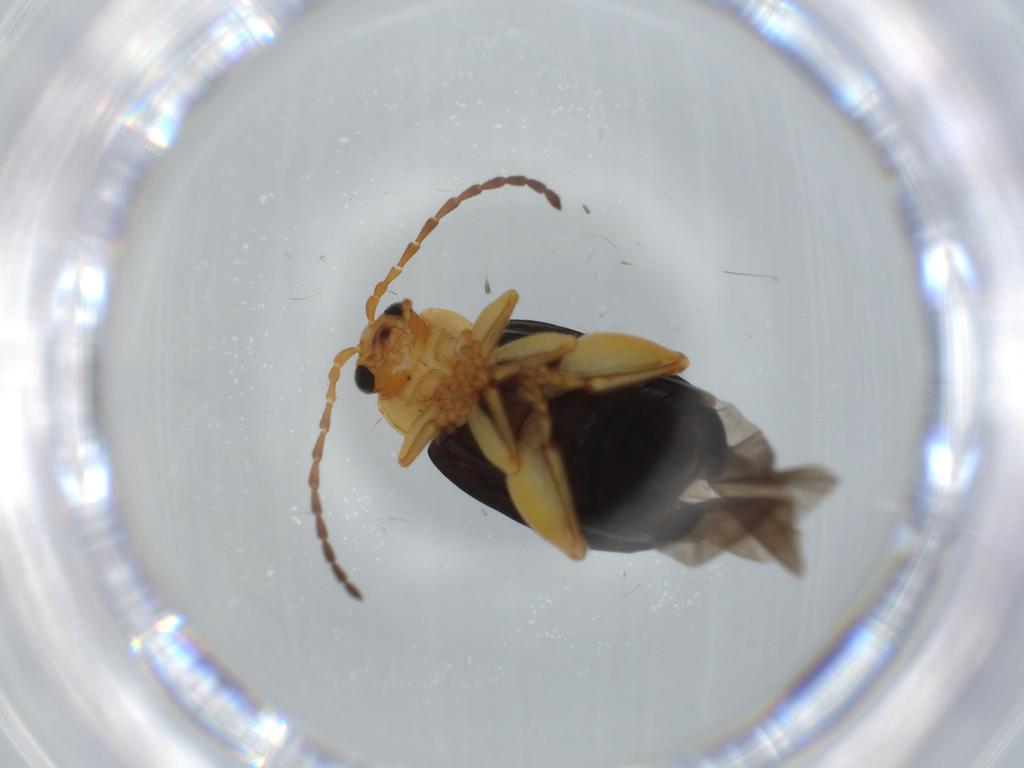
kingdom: Animalia
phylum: Arthropoda
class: Insecta
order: Coleoptera
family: Chrysomelidae
